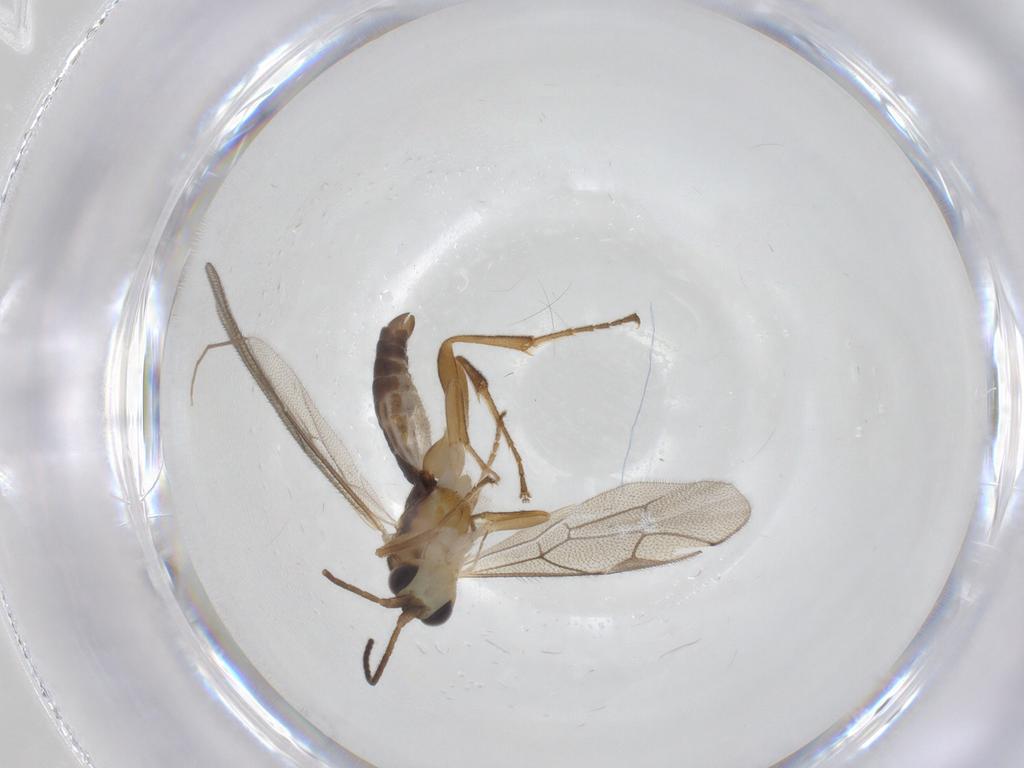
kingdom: Animalia
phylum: Arthropoda
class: Insecta
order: Hymenoptera
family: Ichneumonidae
